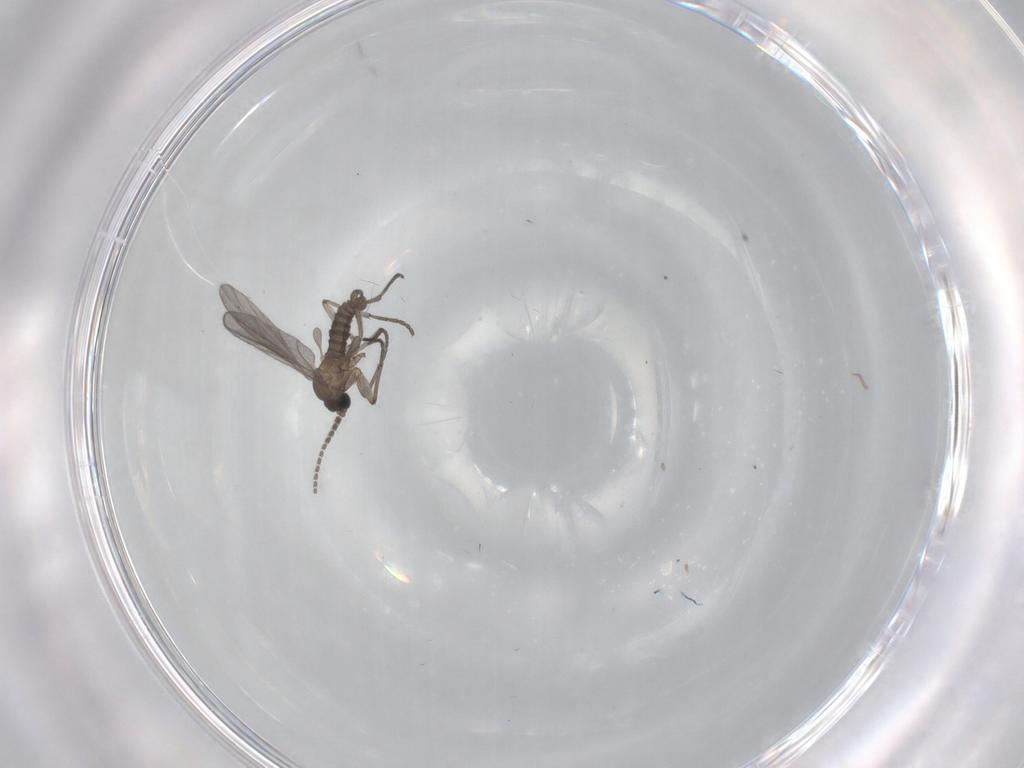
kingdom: Animalia
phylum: Arthropoda
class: Insecta
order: Diptera
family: Sciaridae
